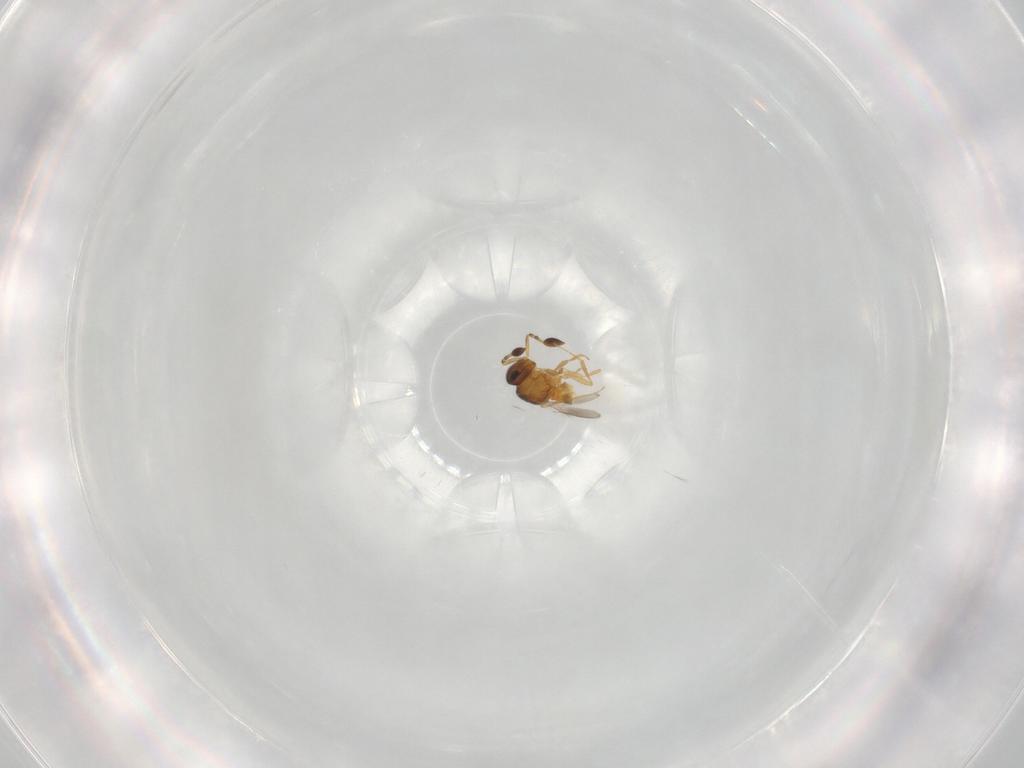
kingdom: Animalia
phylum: Arthropoda
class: Insecta
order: Hymenoptera
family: Scelionidae
